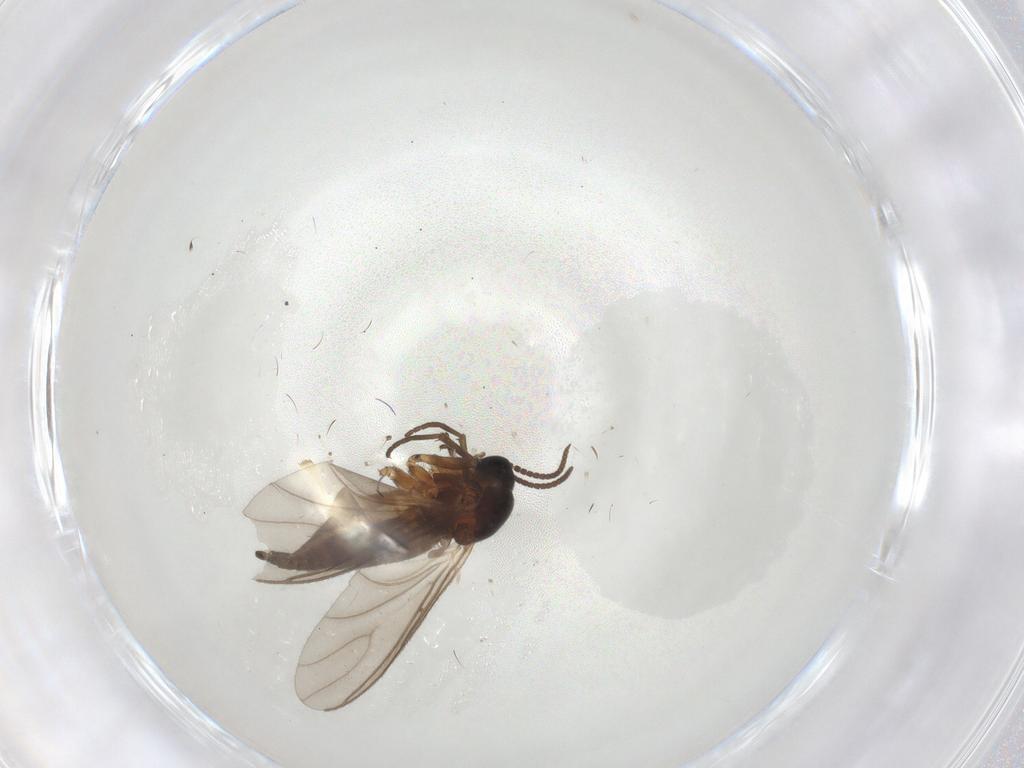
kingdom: Animalia
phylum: Arthropoda
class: Insecta
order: Diptera
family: Sciaridae
